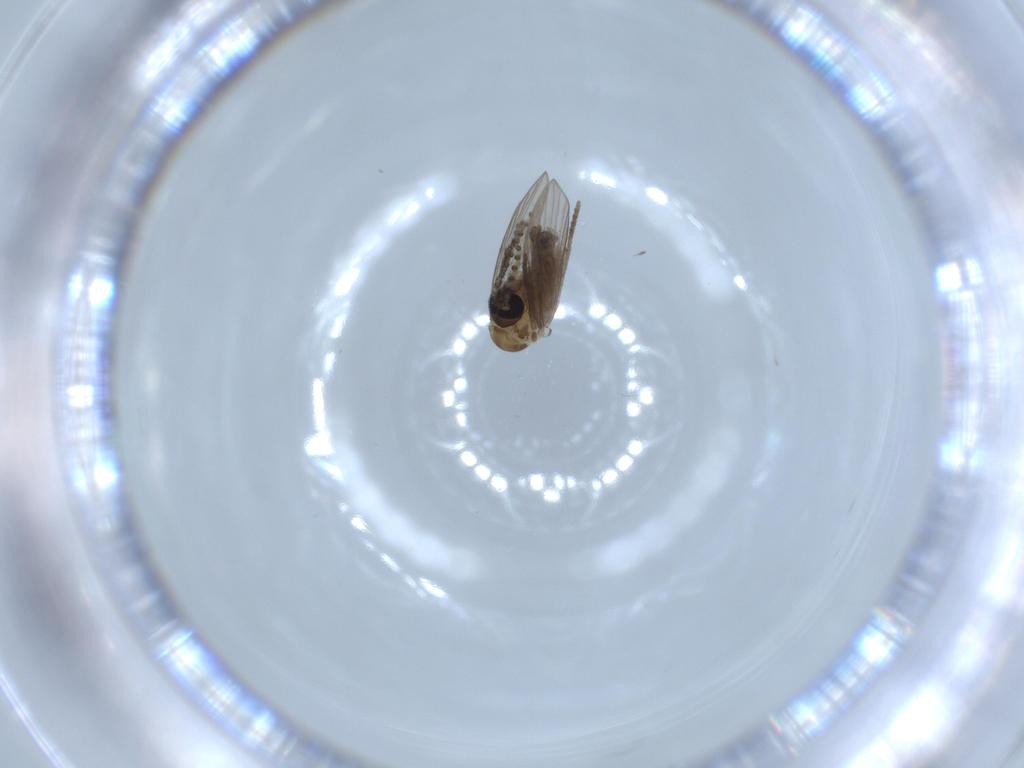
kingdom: Animalia
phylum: Arthropoda
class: Insecta
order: Diptera
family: Psychodidae
